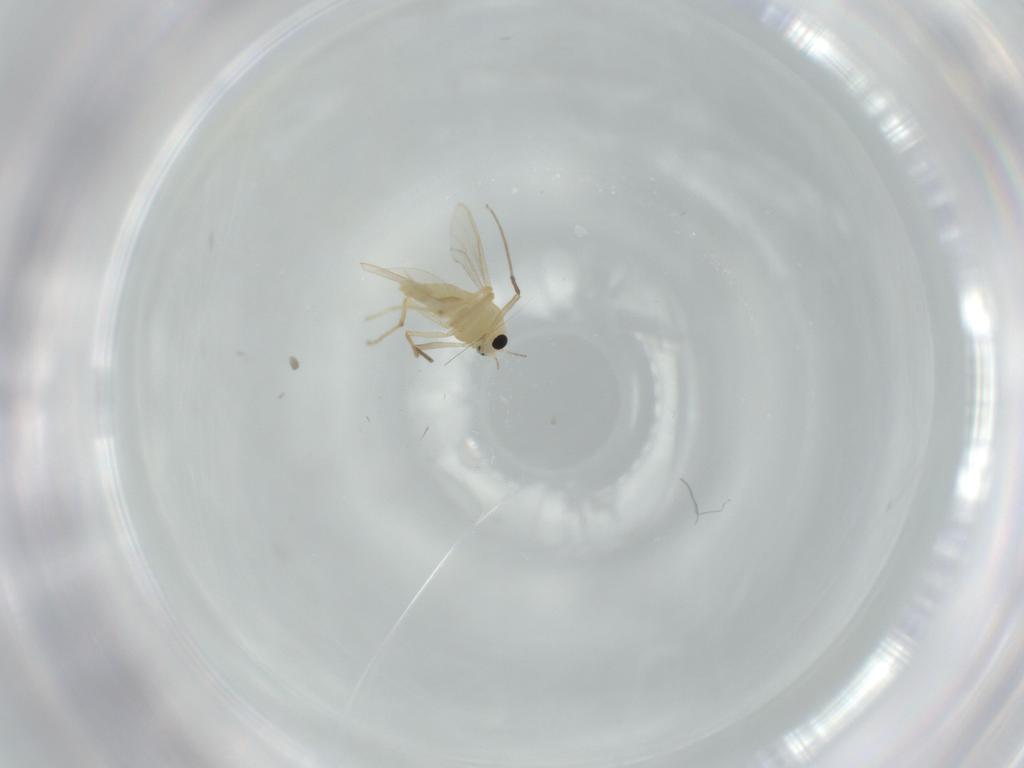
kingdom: Animalia
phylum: Arthropoda
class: Insecta
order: Diptera
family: Chironomidae
